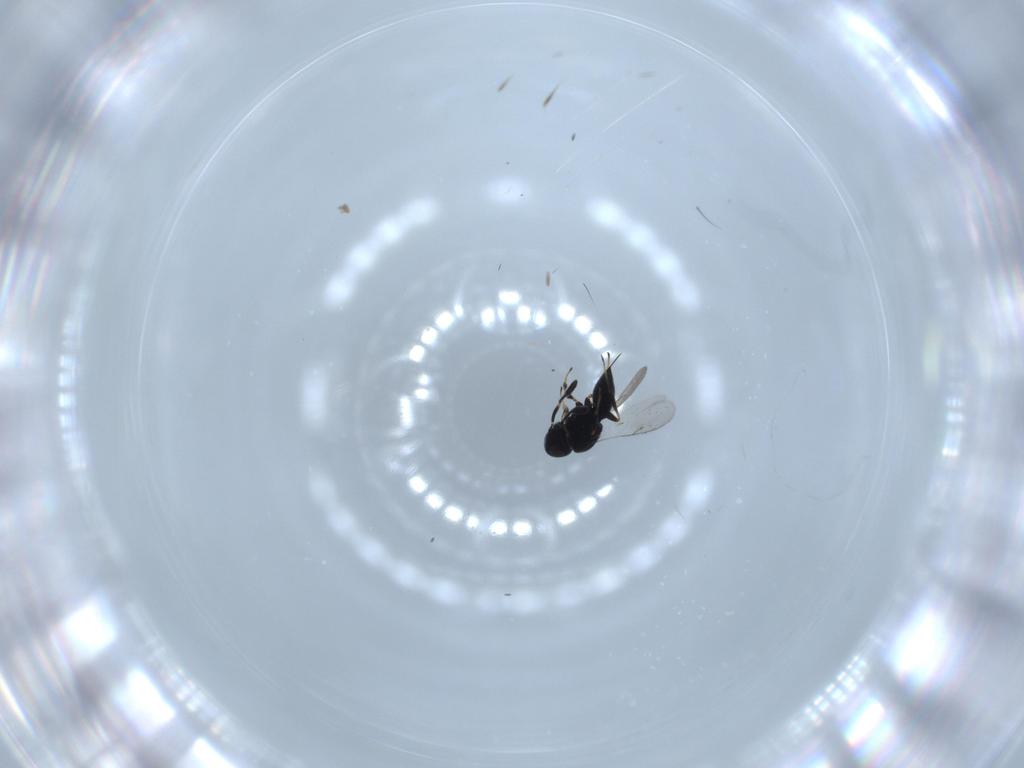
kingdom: Animalia
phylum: Arthropoda
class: Insecta
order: Hymenoptera
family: Scelionidae
